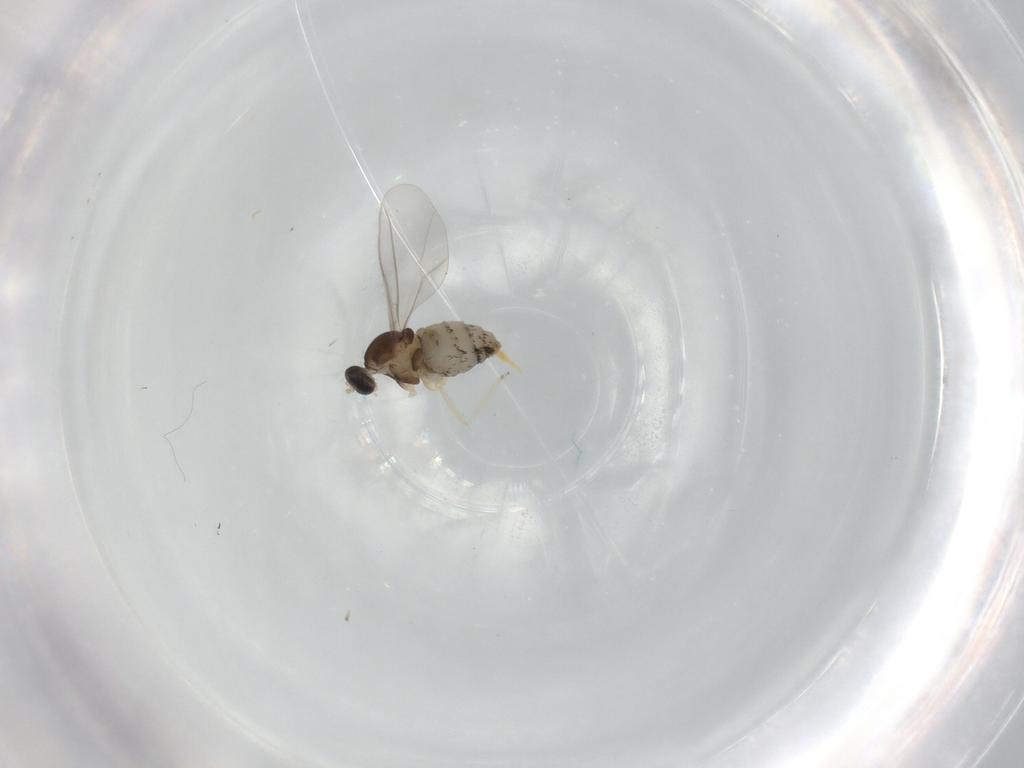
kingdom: Animalia
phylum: Arthropoda
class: Insecta
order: Diptera
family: Cecidomyiidae
